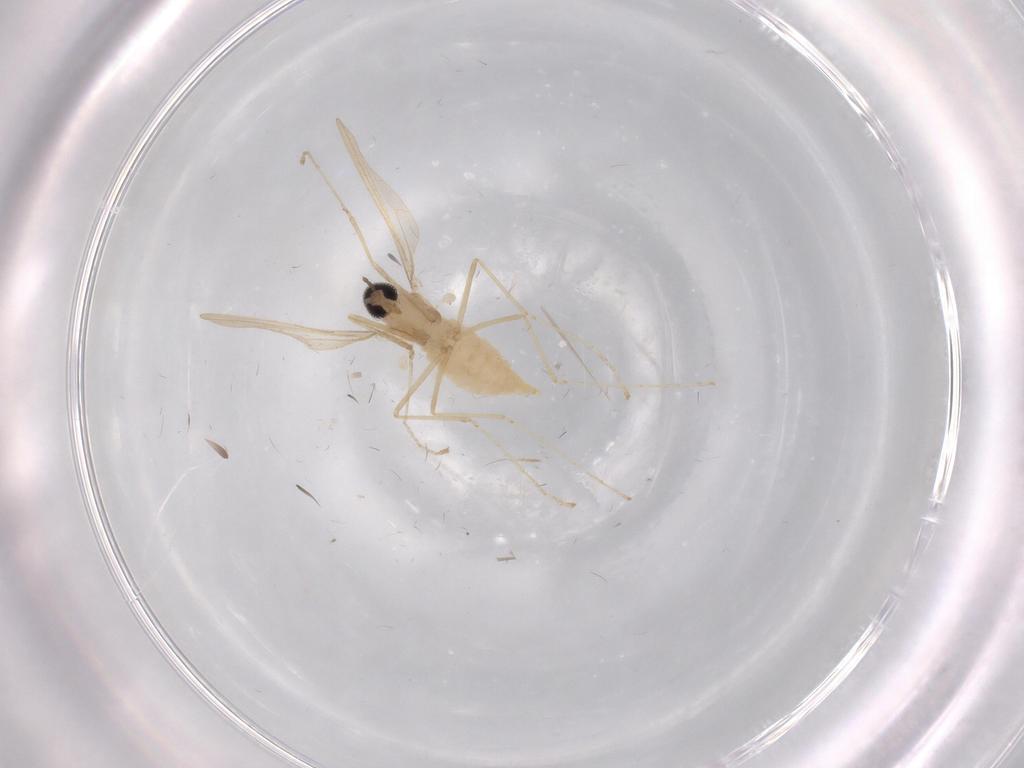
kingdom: Animalia
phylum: Arthropoda
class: Insecta
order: Diptera
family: Cecidomyiidae
